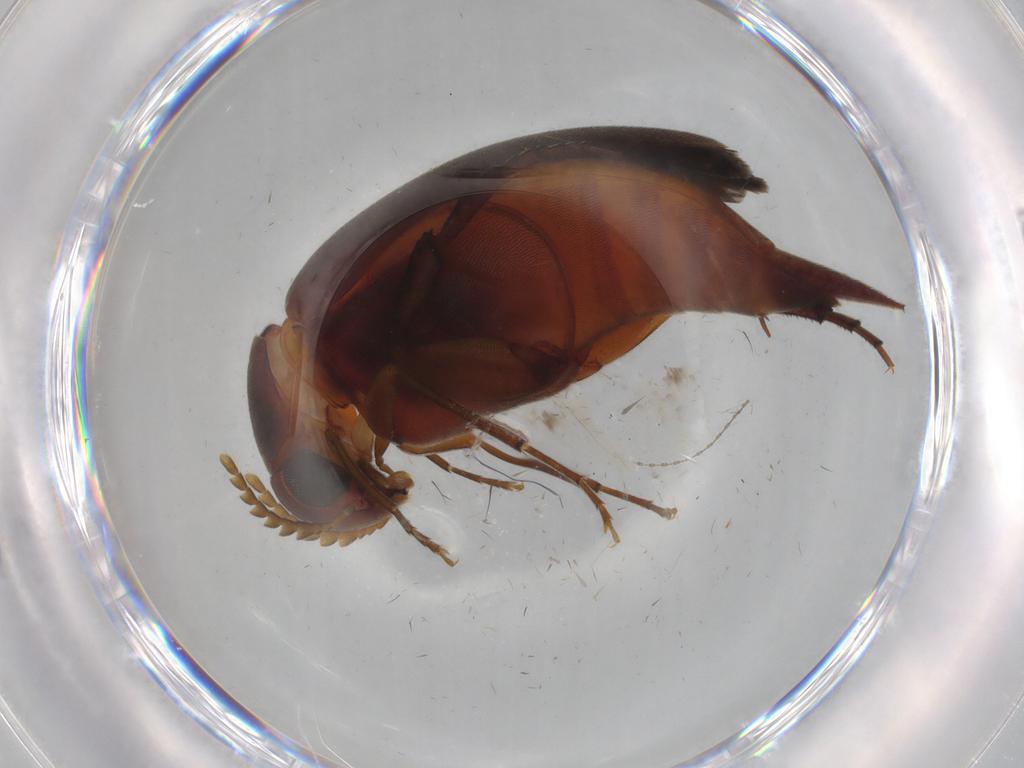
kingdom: Animalia
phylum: Arthropoda
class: Insecta
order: Coleoptera
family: Mordellidae
